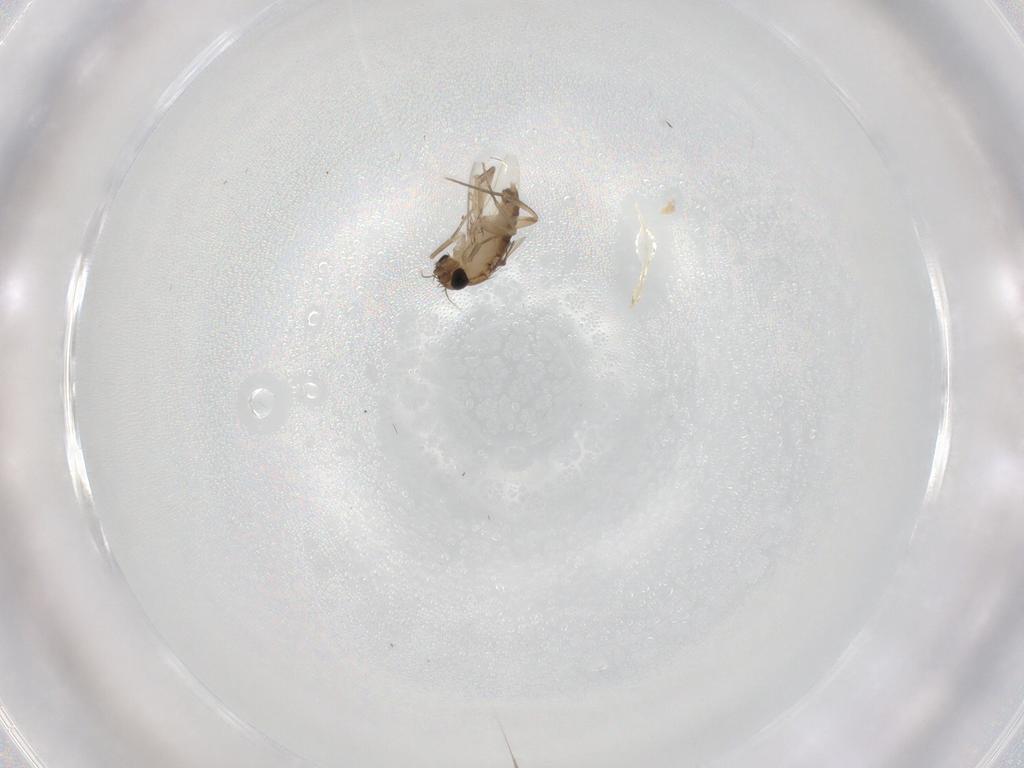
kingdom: Animalia
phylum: Arthropoda
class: Insecta
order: Diptera
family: Phoridae
